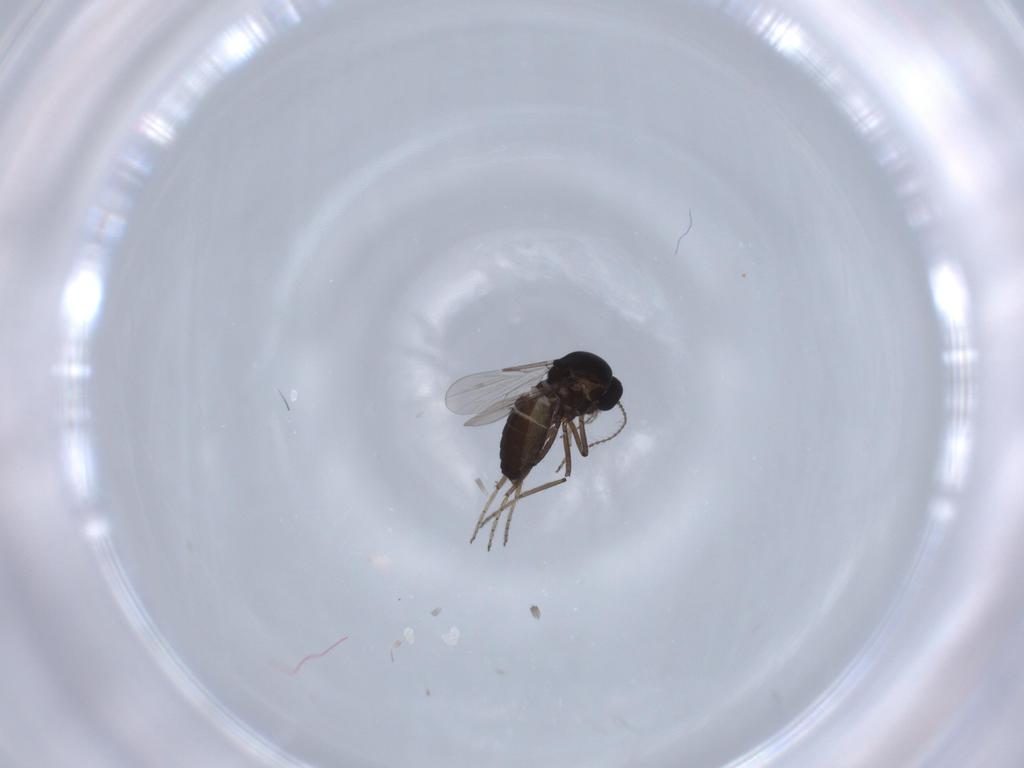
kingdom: Animalia
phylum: Arthropoda
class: Insecta
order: Diptera
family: Ceratopogonidae
